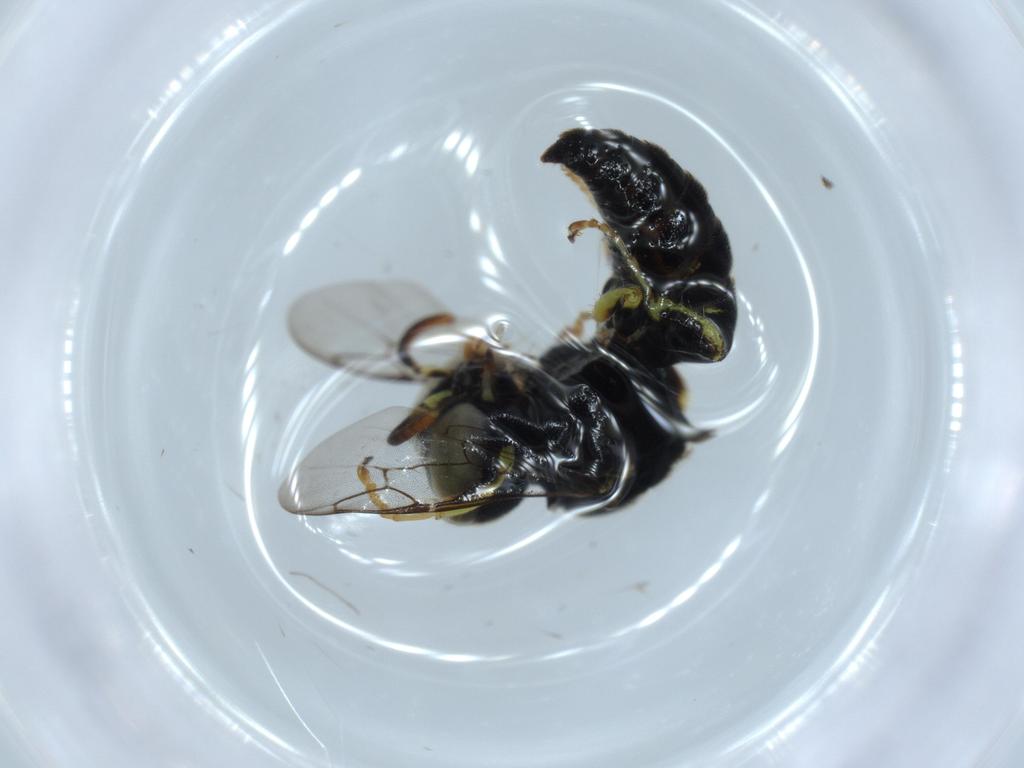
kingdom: Animalia
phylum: Arthropoda
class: Insecta
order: Hymenoptera
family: Crabronidae
